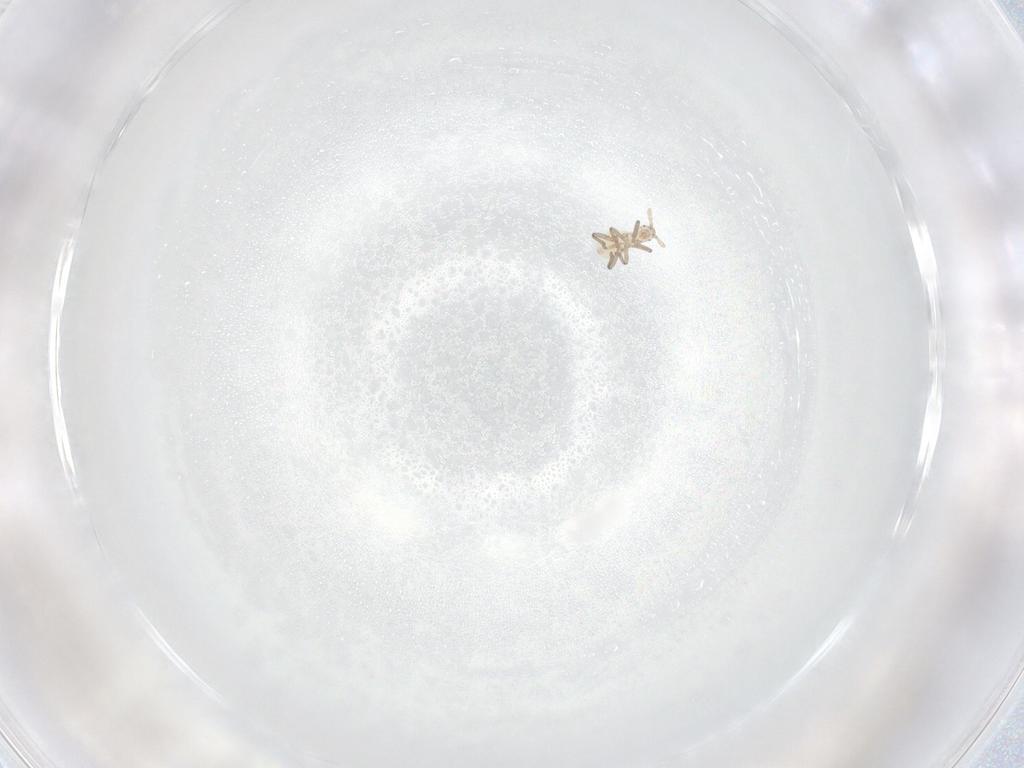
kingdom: Animalia
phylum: Arthropoda
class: Insecta
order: Hemiptera
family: Aphididae
